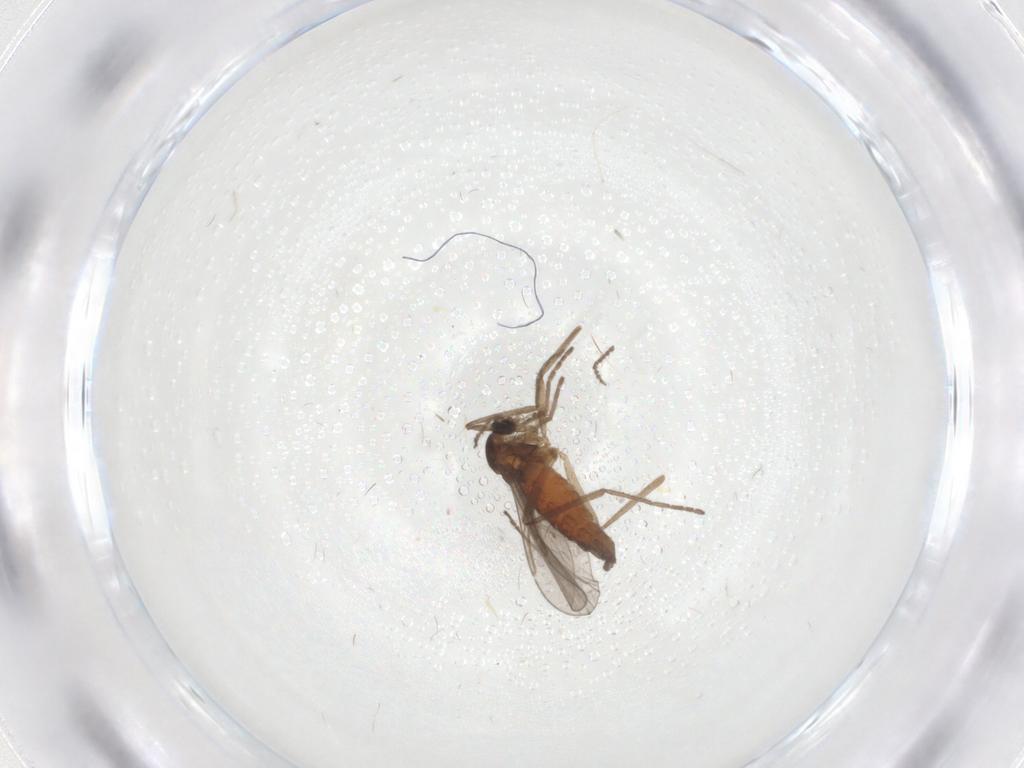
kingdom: Animalia
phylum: Arthropoda
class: Insecta
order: Diptera
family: Cecidomyiidae
